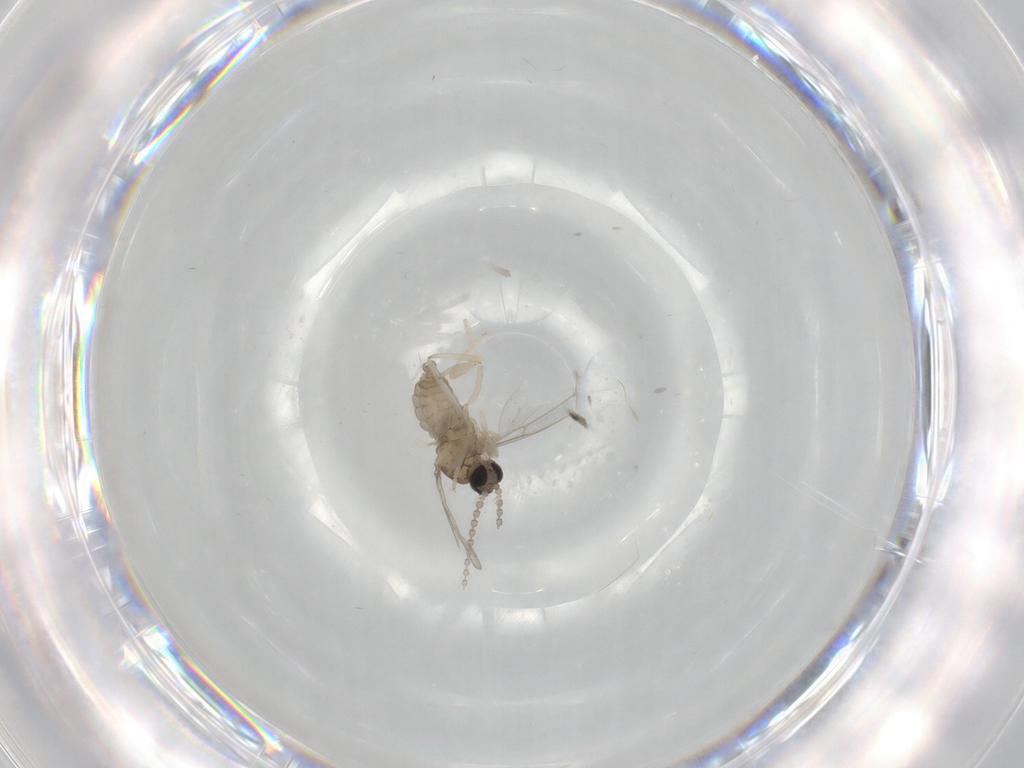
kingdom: Animalia
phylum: Arthropoda
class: Insecta
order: Diptera
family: Cecidomyiidae
